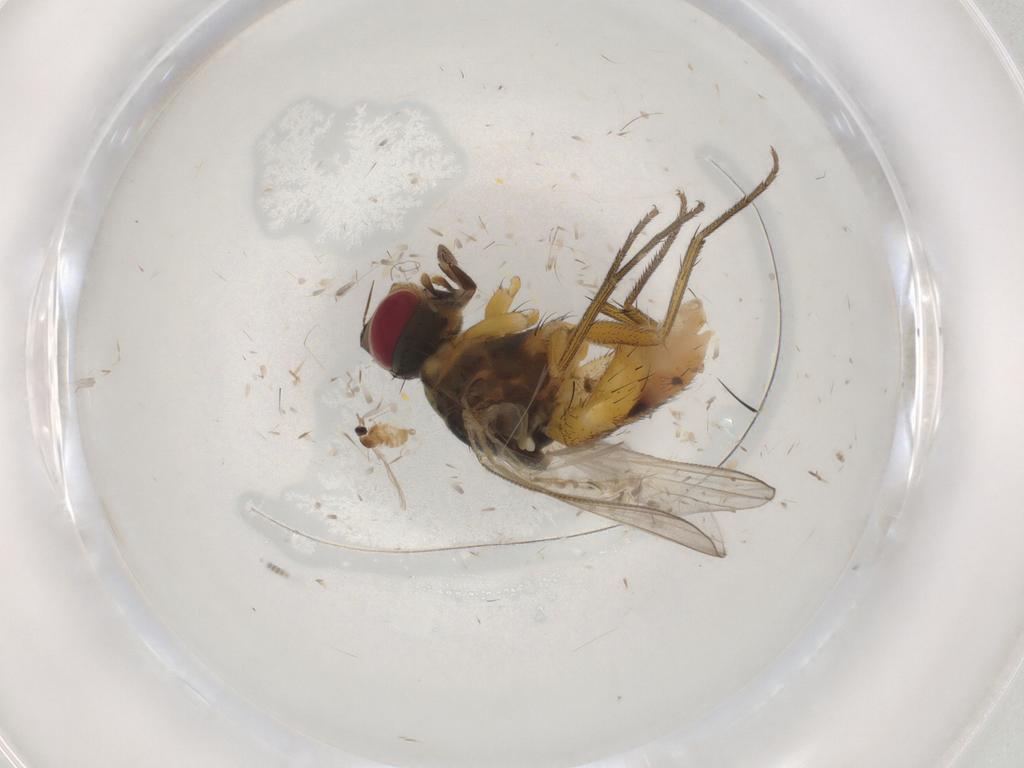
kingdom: Animalia
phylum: Arthropoda
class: Insecta
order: Diptera
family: Muscidae
